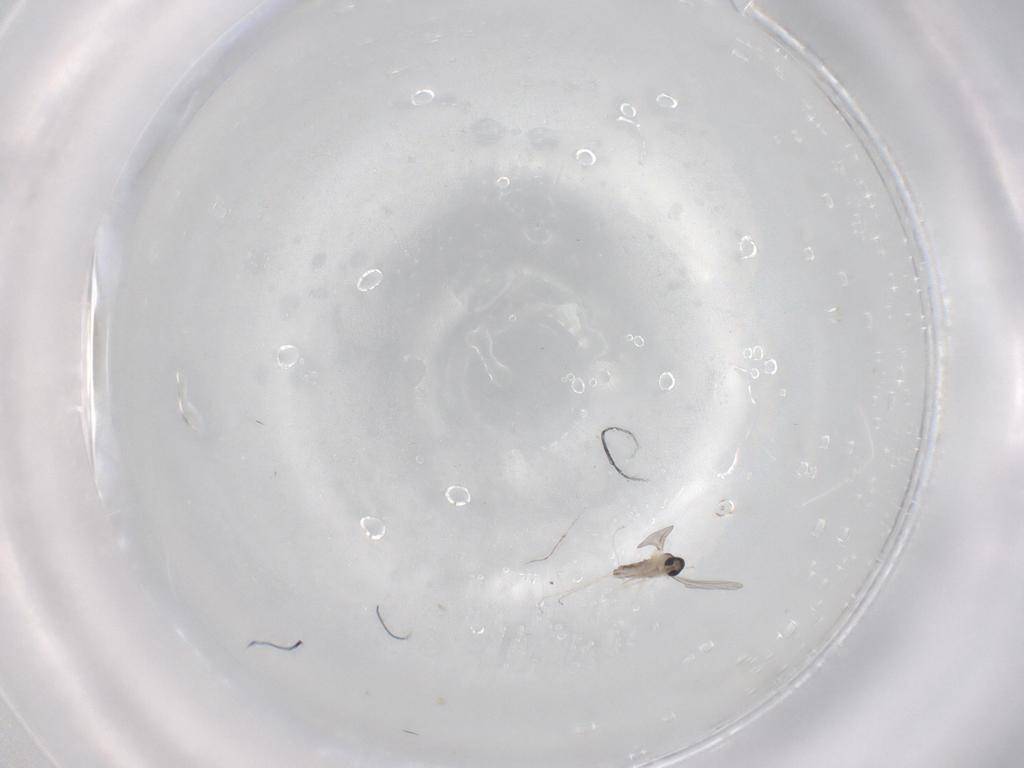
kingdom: Animalia
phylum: Arthropoda
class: Insecta
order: Diptera
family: Cecidomyiidae
